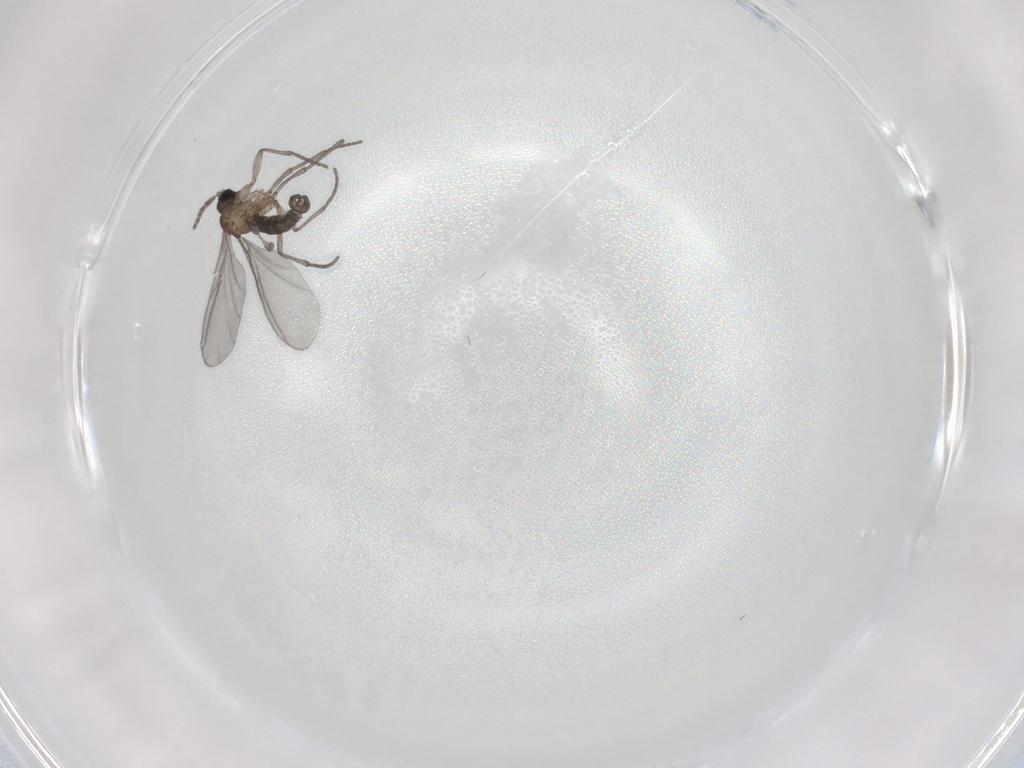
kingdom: Animalia
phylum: Arthropoda
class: Insecta
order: Diptera
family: Sciaridae
